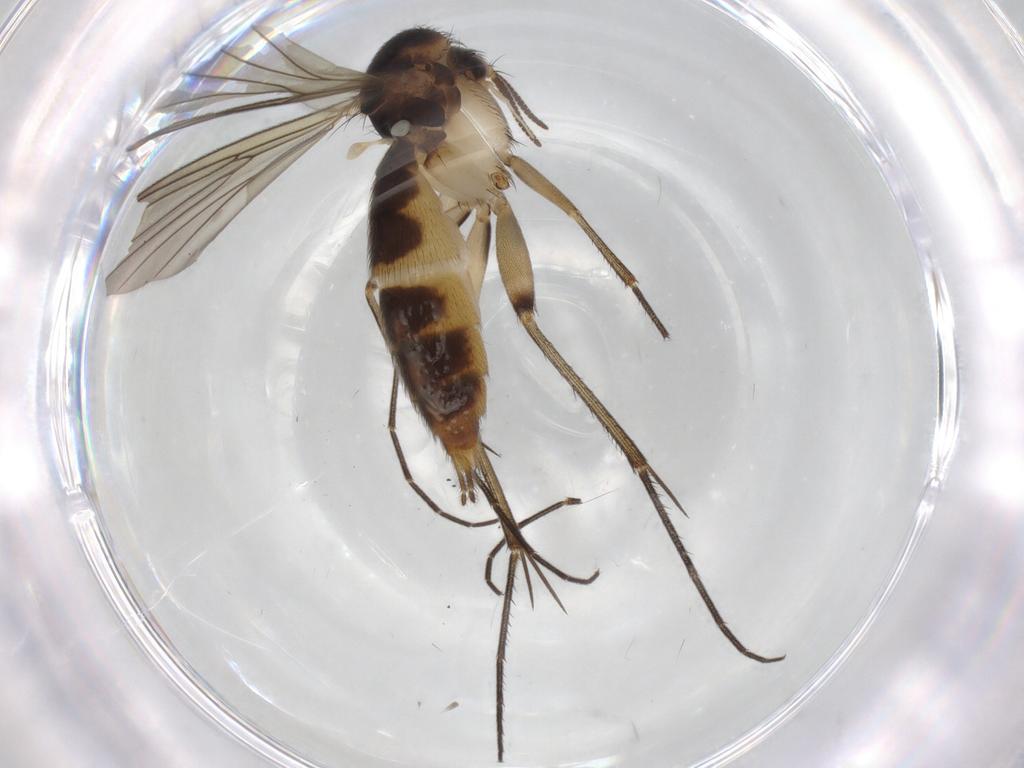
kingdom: Animalia
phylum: Arthropoda
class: Insecta
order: Diptera
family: Mycetophilidae
